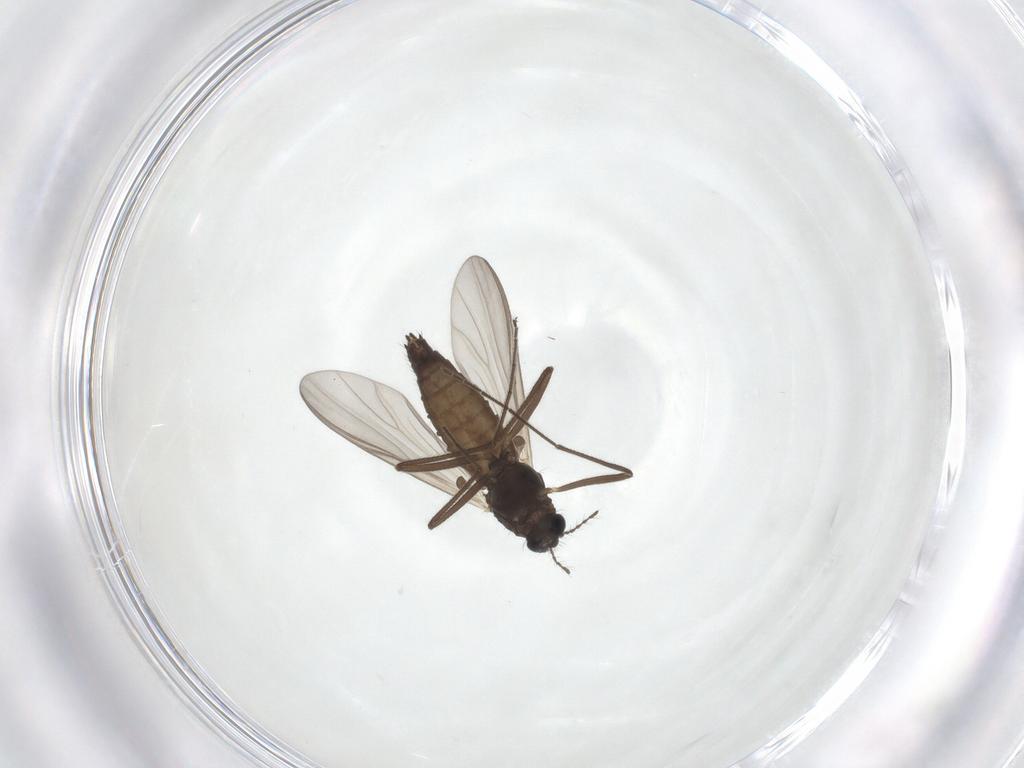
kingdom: Animalia
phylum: Arthropoda
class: Insecta
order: Diptera
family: Chironomidae
